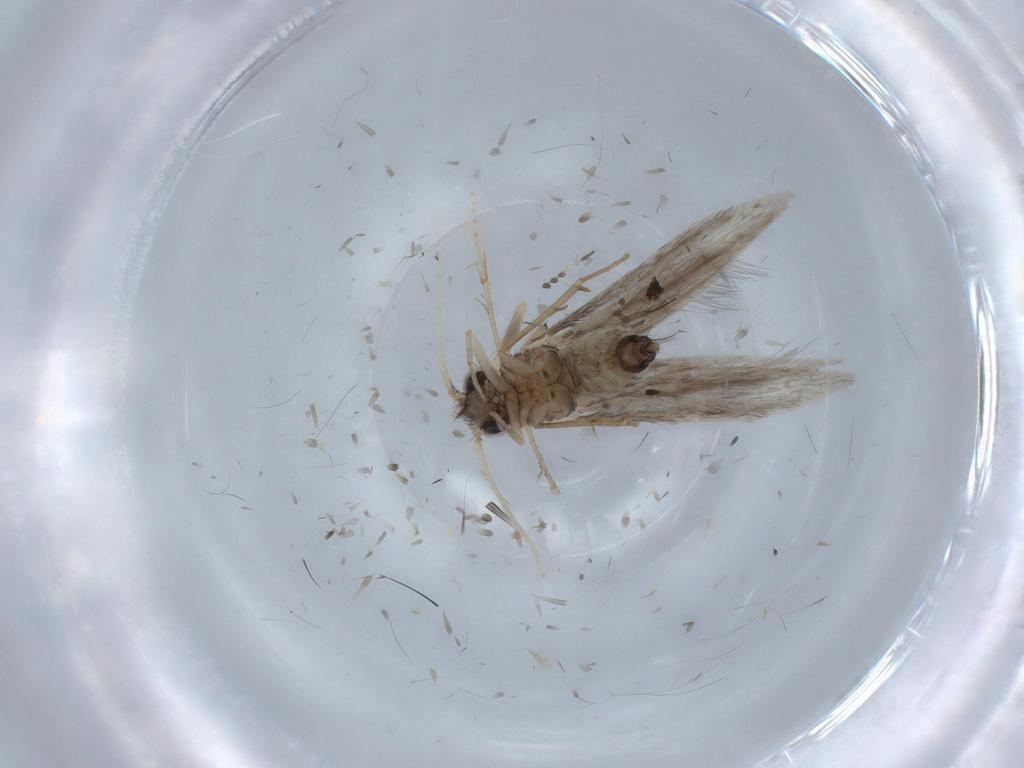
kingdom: Animalia
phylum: Arthropoda
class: Insecta
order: Trichoptera
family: Hydroptilidae
